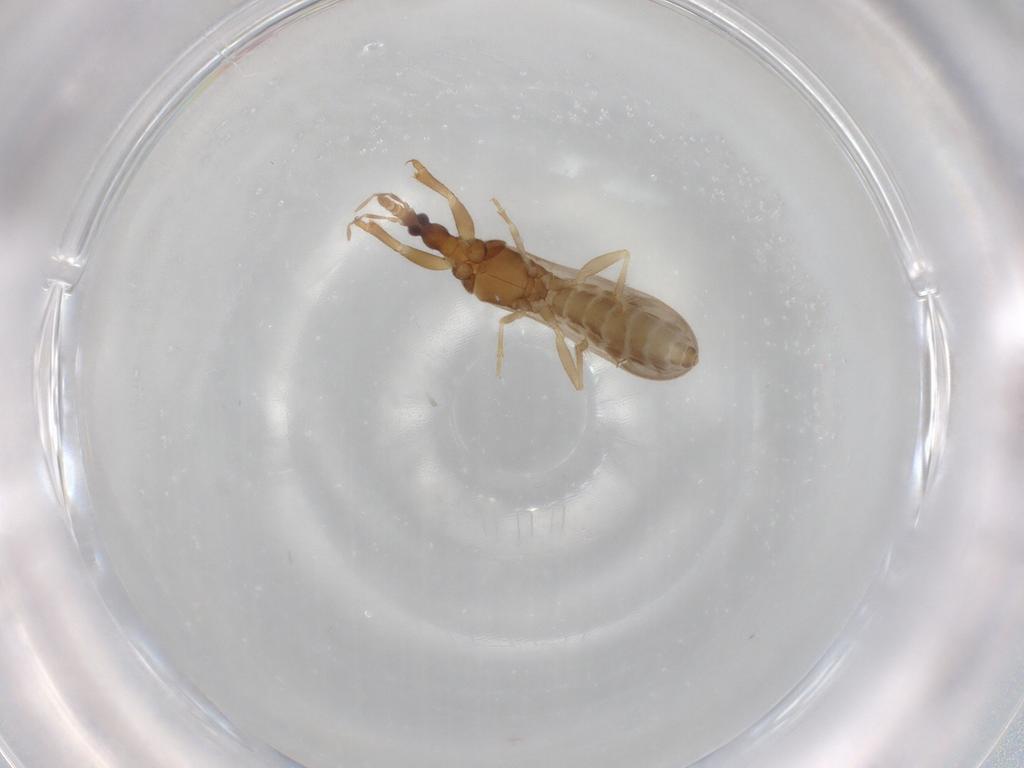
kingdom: Animalia
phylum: Arthropoda
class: Insecta
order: Hemiptera
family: Enicocephalidae
